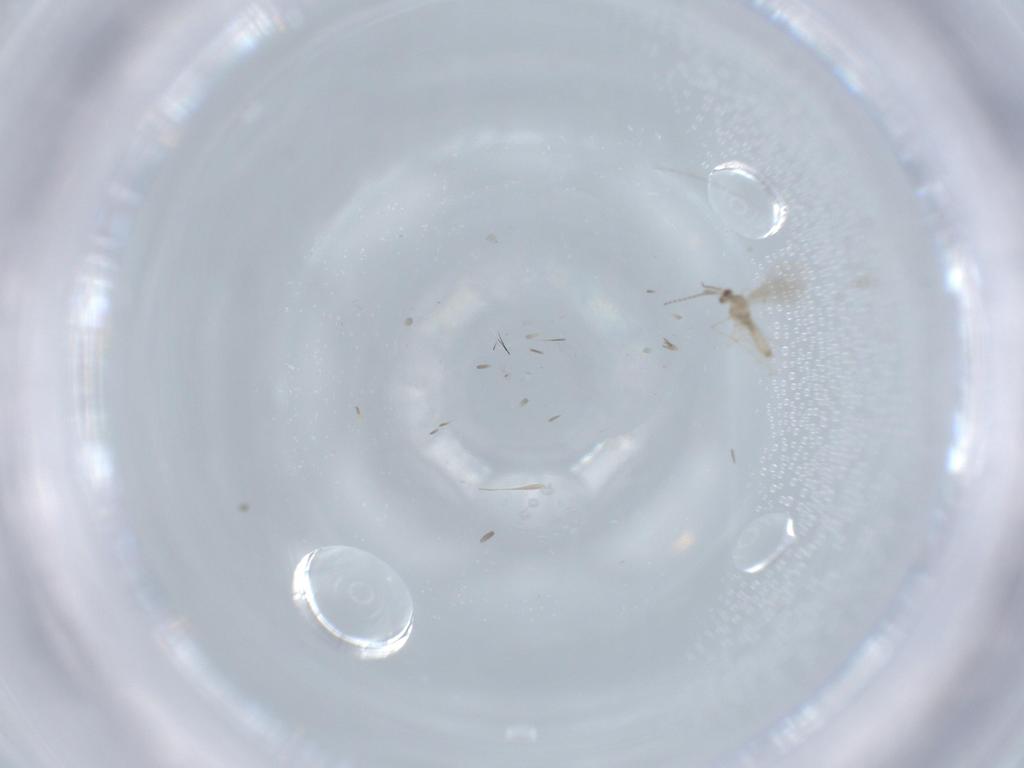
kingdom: Animalia
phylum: Arthropoda
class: Insecta
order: Diptera
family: Cecidomyiidae
